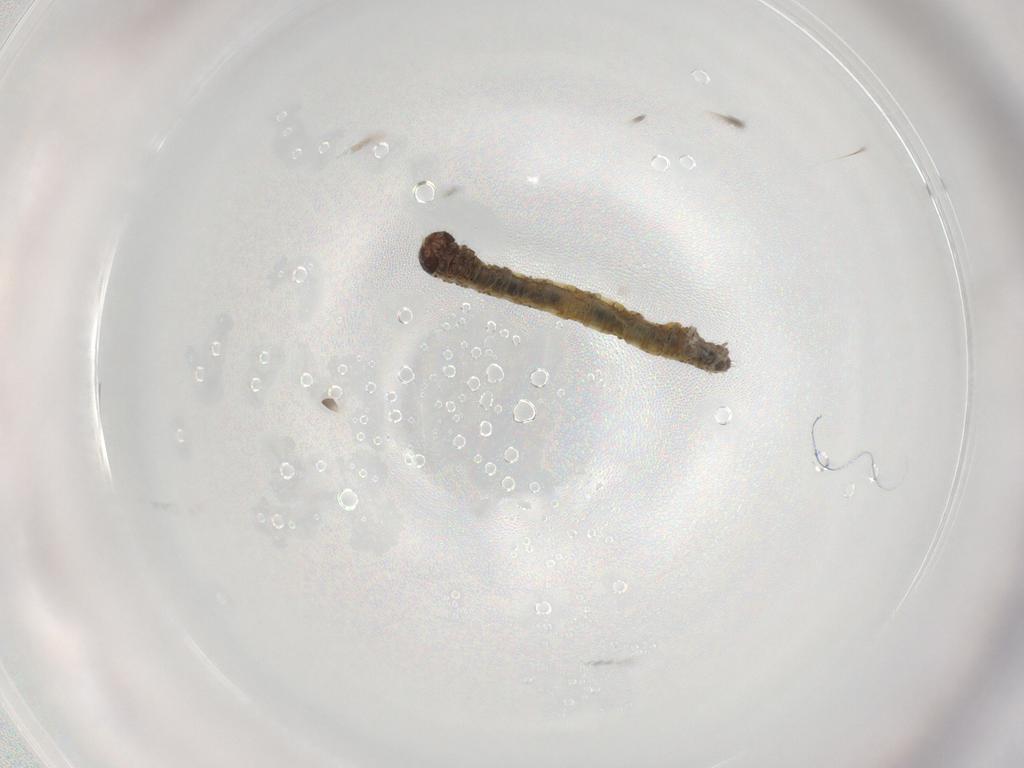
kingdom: Animalia
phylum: Arthropoda
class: Insecta
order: Lepidoptera
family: Geometridae
